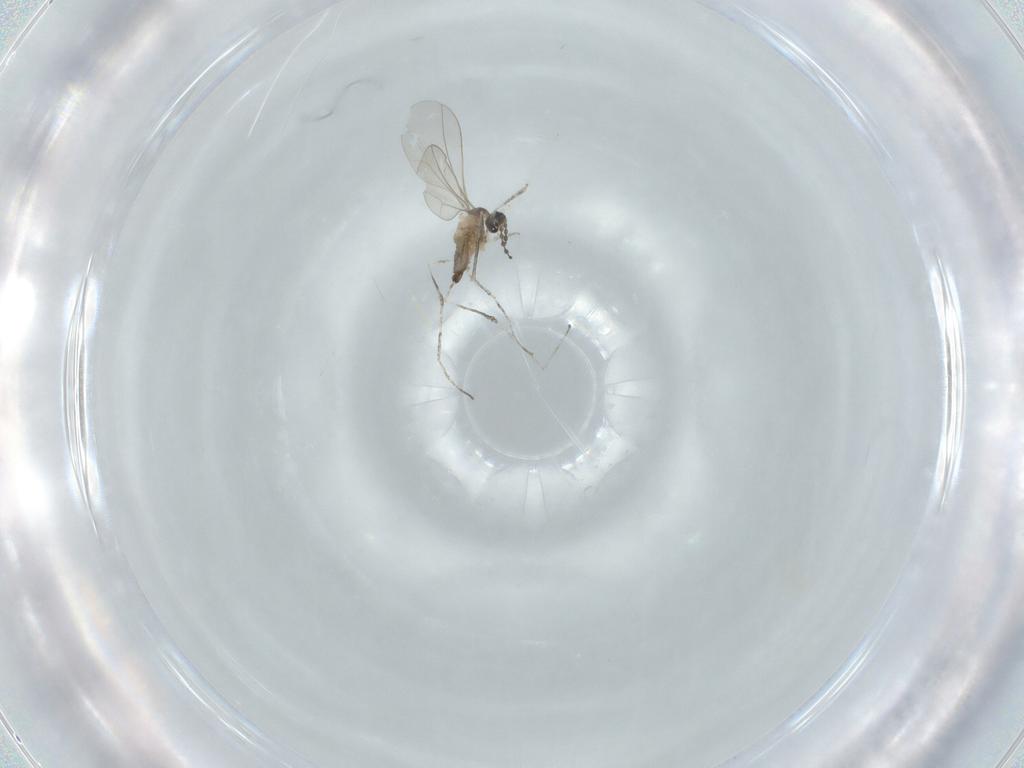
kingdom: Animalia
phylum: Arthropoda
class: Insecta
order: Diptera
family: Cecidomyiidae
